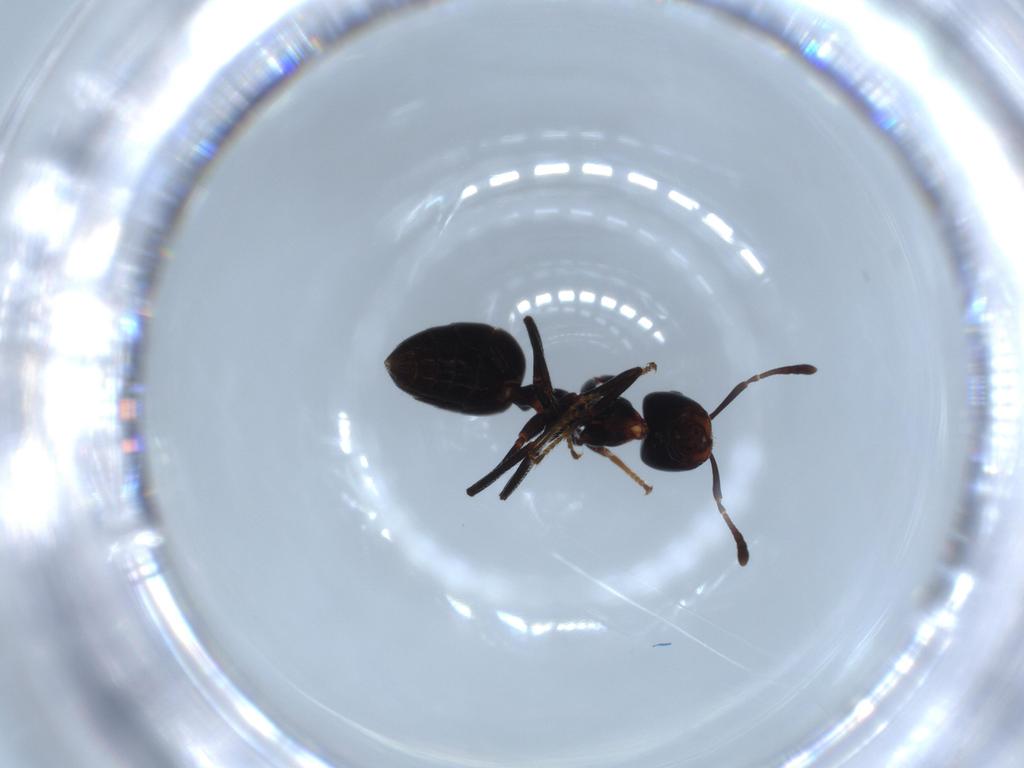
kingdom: Animalia
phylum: Arthropoda
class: Insecta
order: Hymenoptera
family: Formicidae
